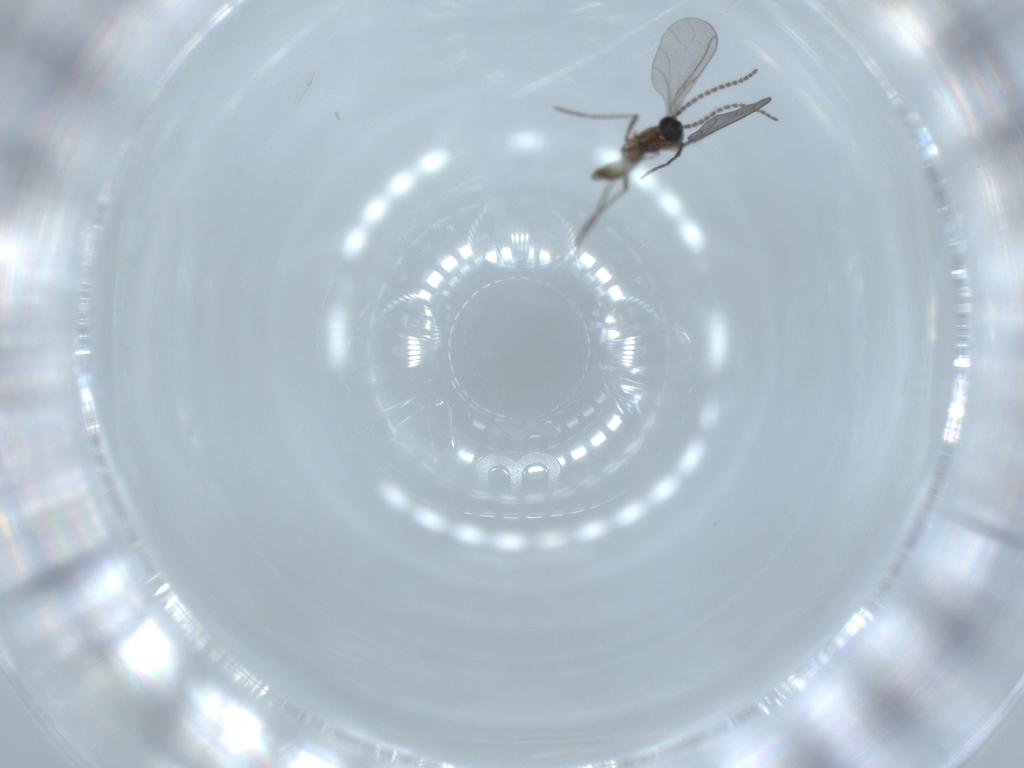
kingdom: Animalia
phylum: Arthropoda
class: Insecta
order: Diptera
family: Sciaridae
